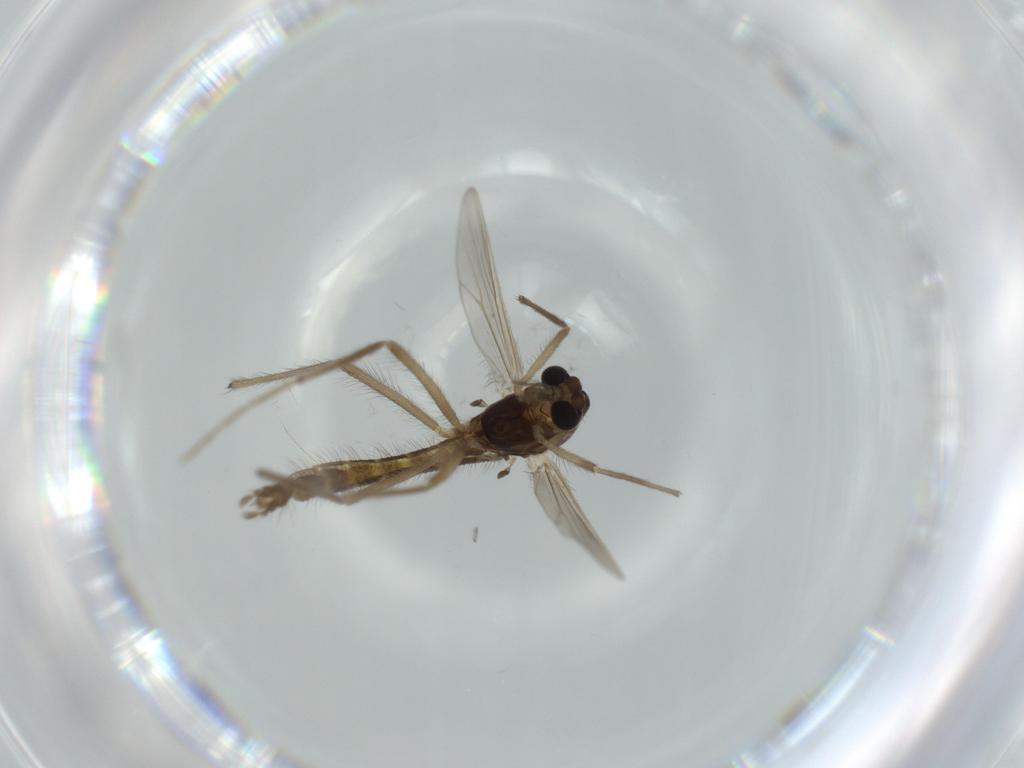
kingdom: Animalia
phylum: Arthropoda
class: Insecta
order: Diptera
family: Chironomidae
